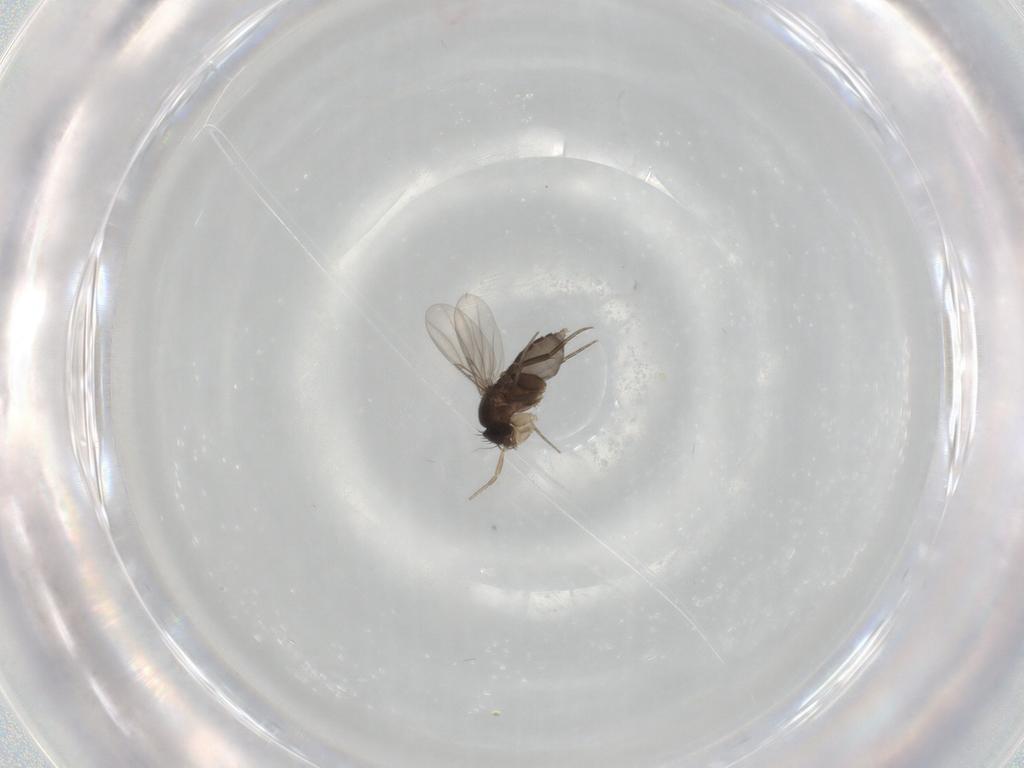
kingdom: Animalia
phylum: Arthropoda
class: Insecta
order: Diptera
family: Phoridae
